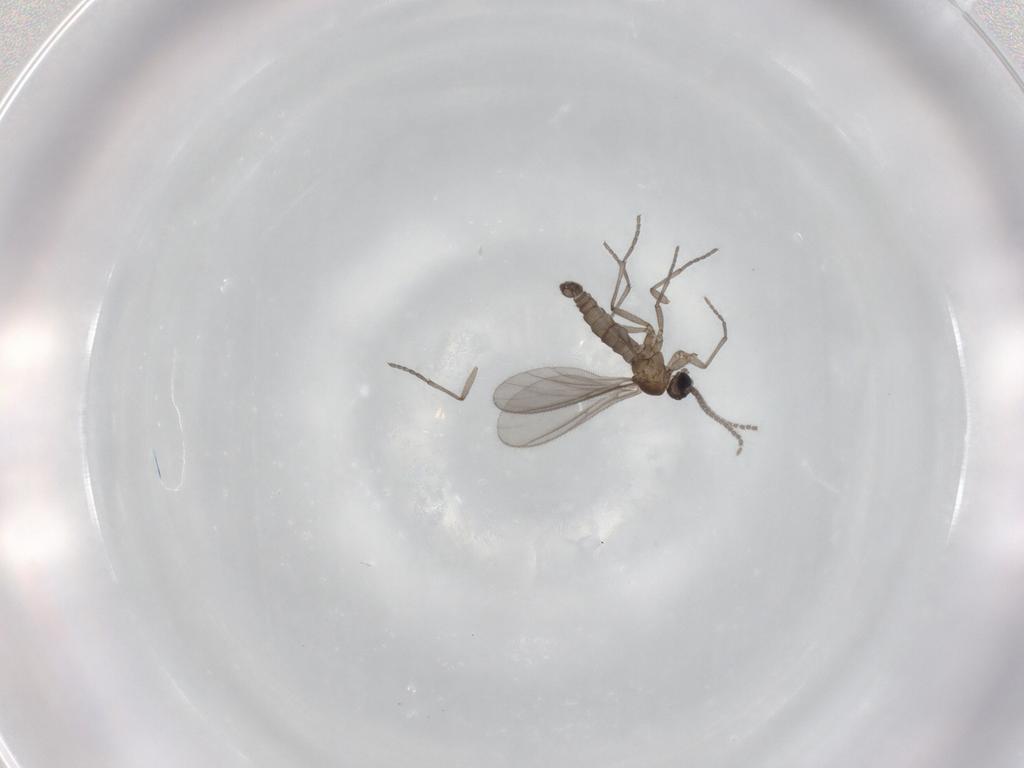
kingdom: Animalia
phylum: Arthropoda
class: Insecta
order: Diptera
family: Sciaridae
